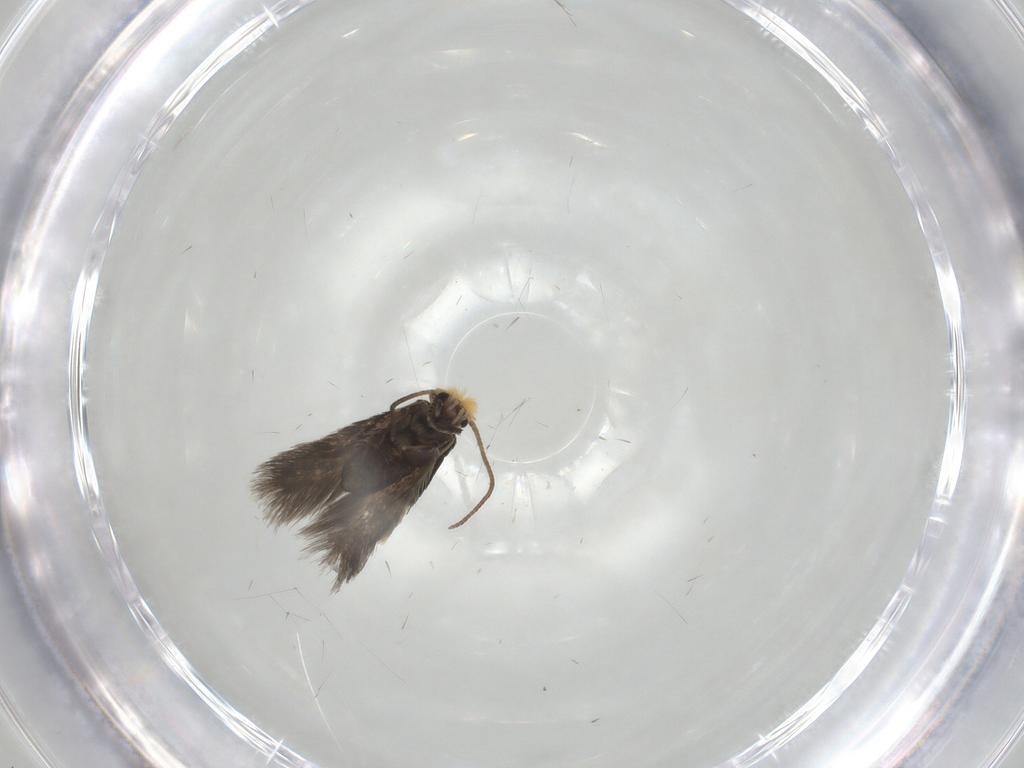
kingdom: Animalia
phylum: Arthropoda
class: Insecta
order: Lepidoptera
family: Nepticulidae
